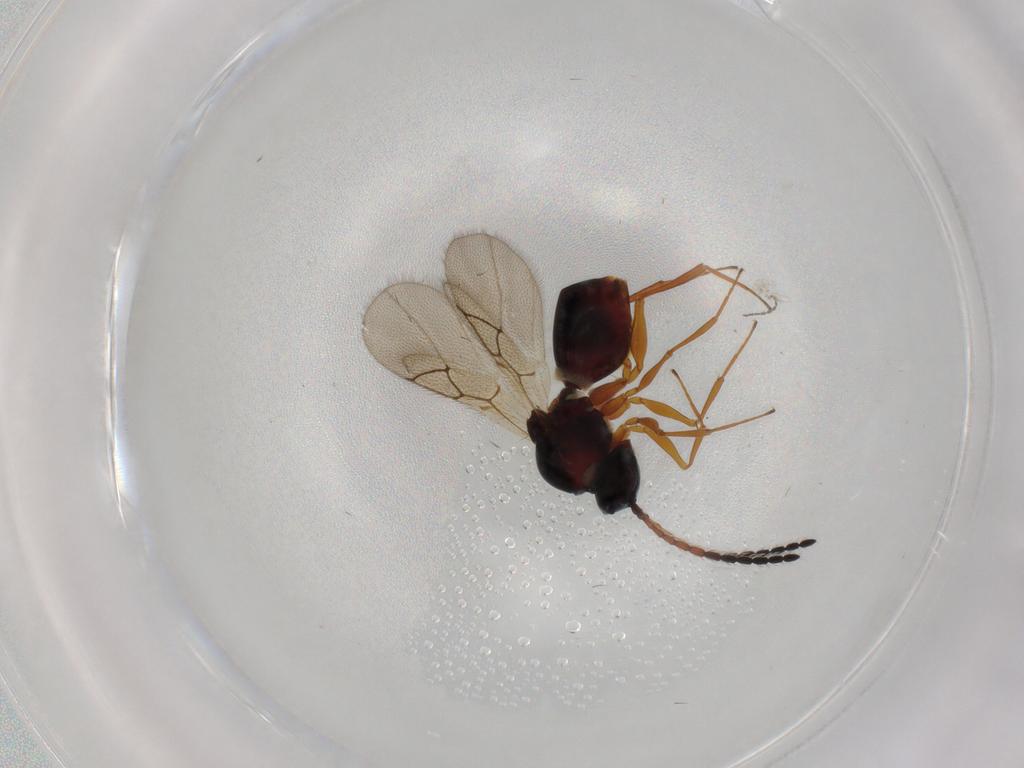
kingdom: Animalia
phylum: Arthropoda
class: Insecta
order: Hymenoptera
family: Figitidae
